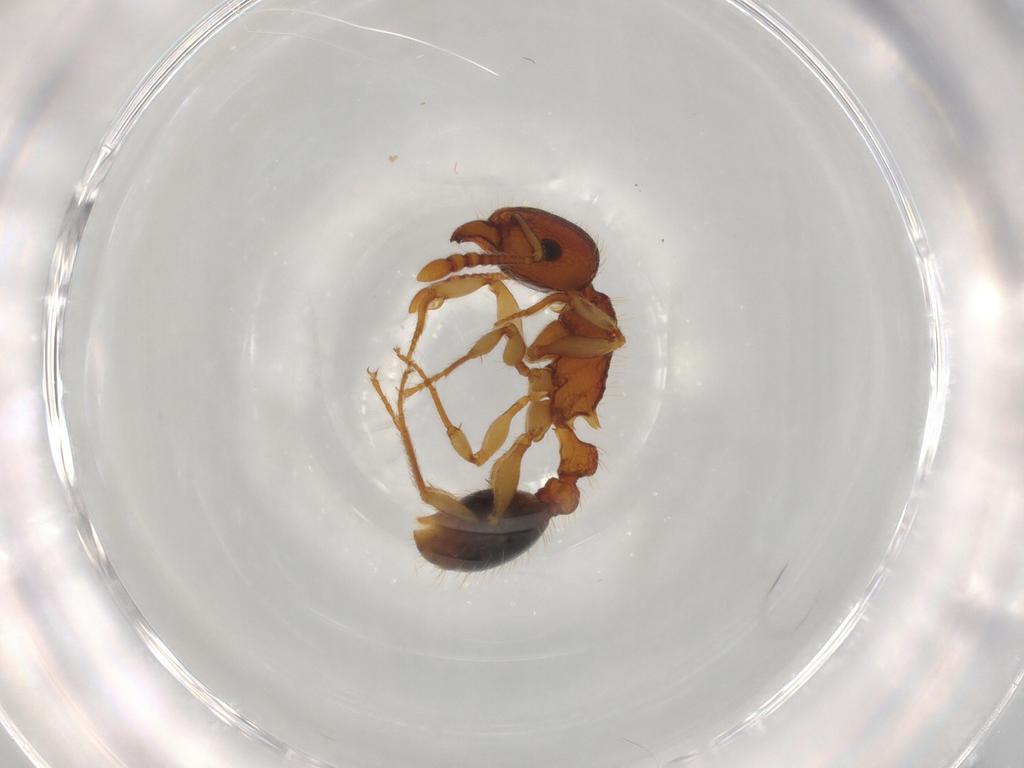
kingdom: Animalia
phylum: Arthropoda
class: Insecta
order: Hymenoptera
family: Formicidae
